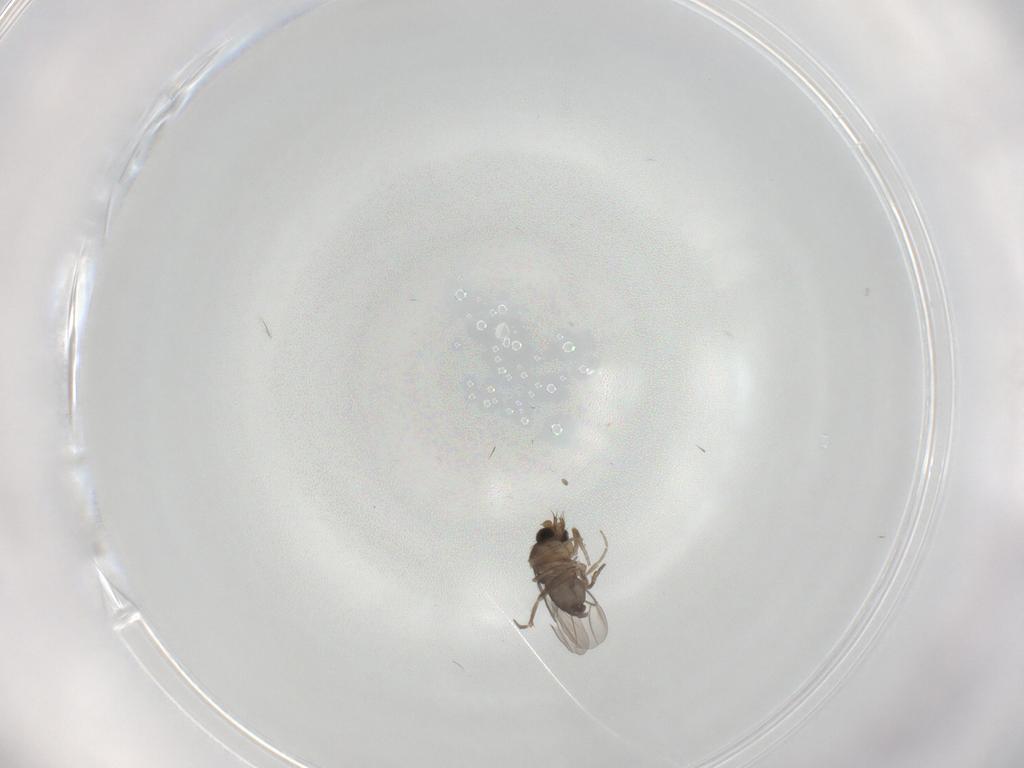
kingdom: Animalia
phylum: Arthropoda
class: Insecta
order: Diptera
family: Phoridae
